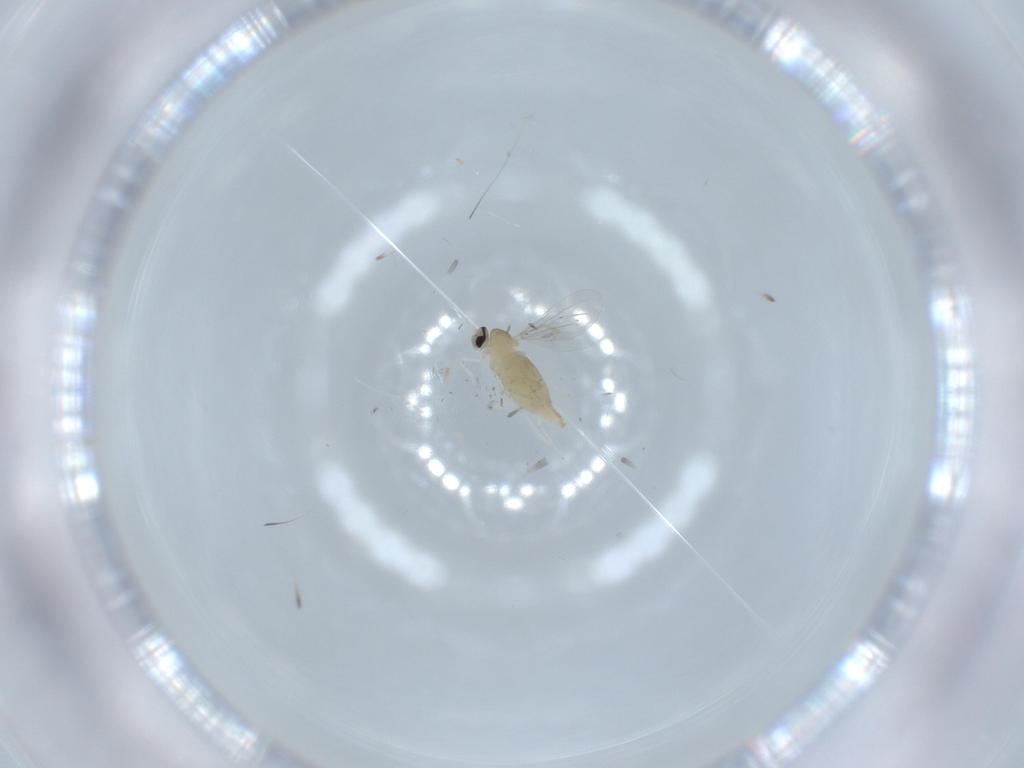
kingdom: Animalia
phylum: Arthropoda
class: Insecta
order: Diptera
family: Cecidomyiidae
